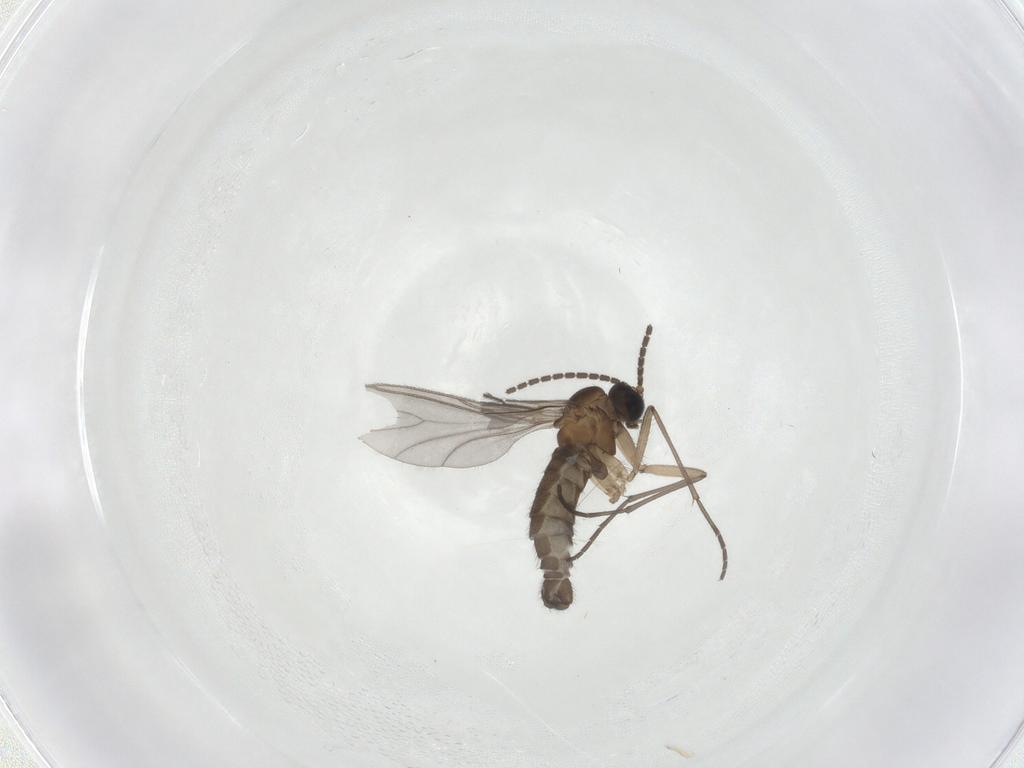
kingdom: Animalia
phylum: Arthropoda
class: Insecta
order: Diptera
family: Sciaridae
